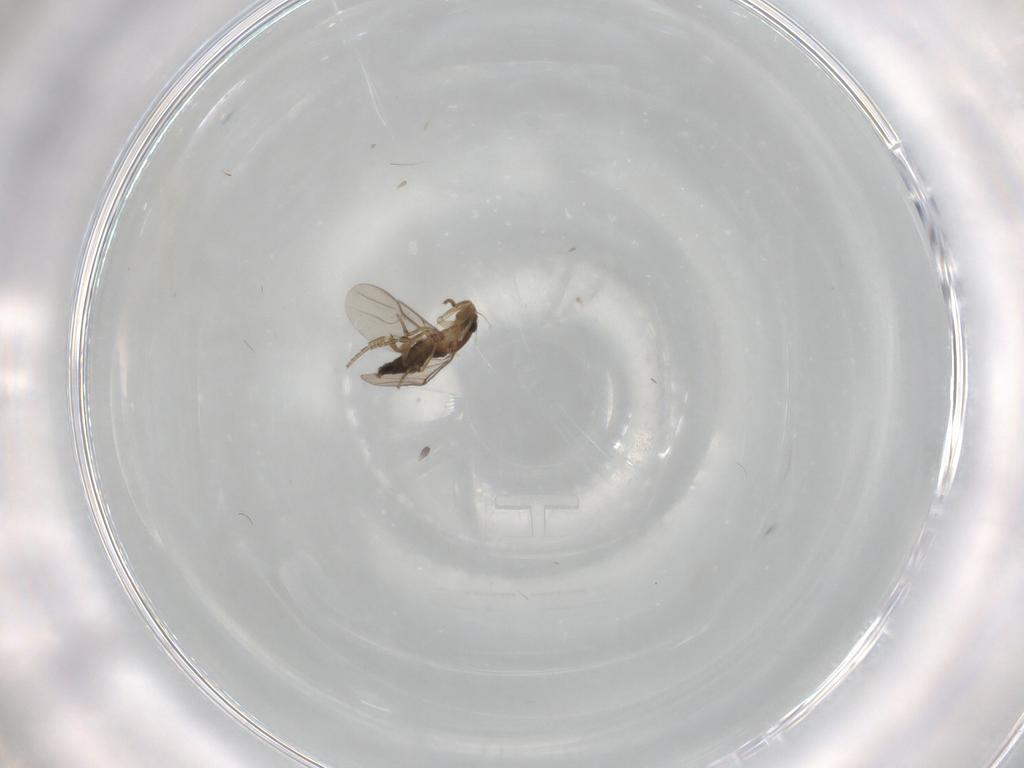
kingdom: Animalia
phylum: Arthropoda
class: Insecta
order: Diptera
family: Phoridae
